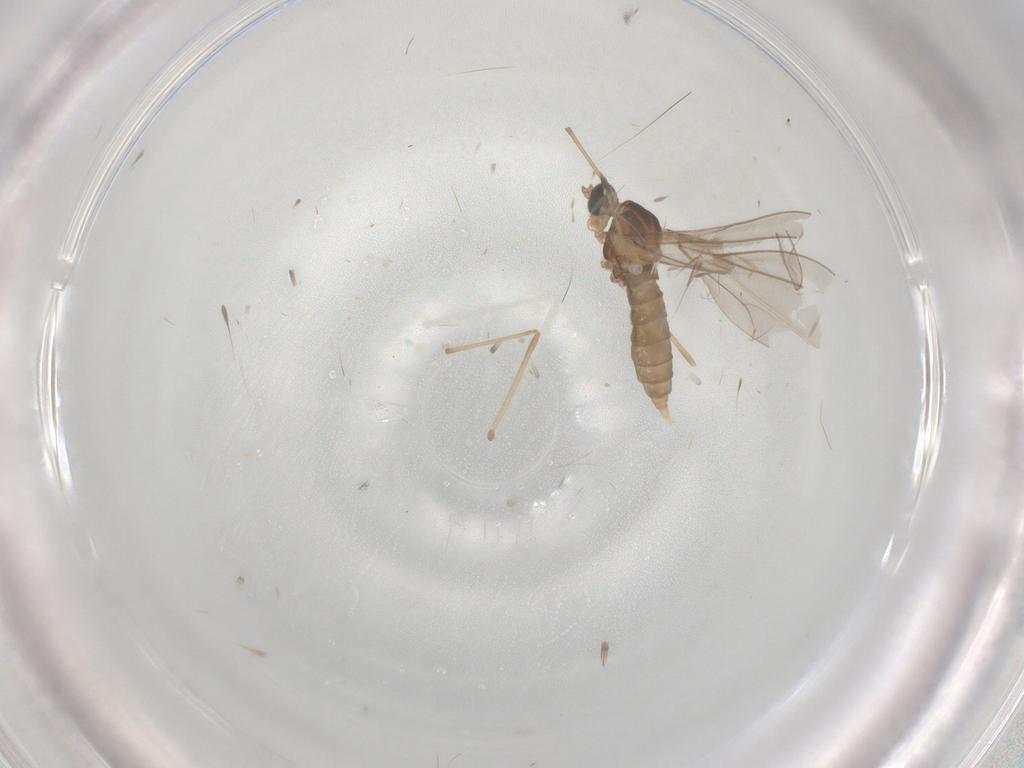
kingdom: Animalia
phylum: Arthropoda
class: Insecta
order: Diptera
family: Cecidomyiidae
